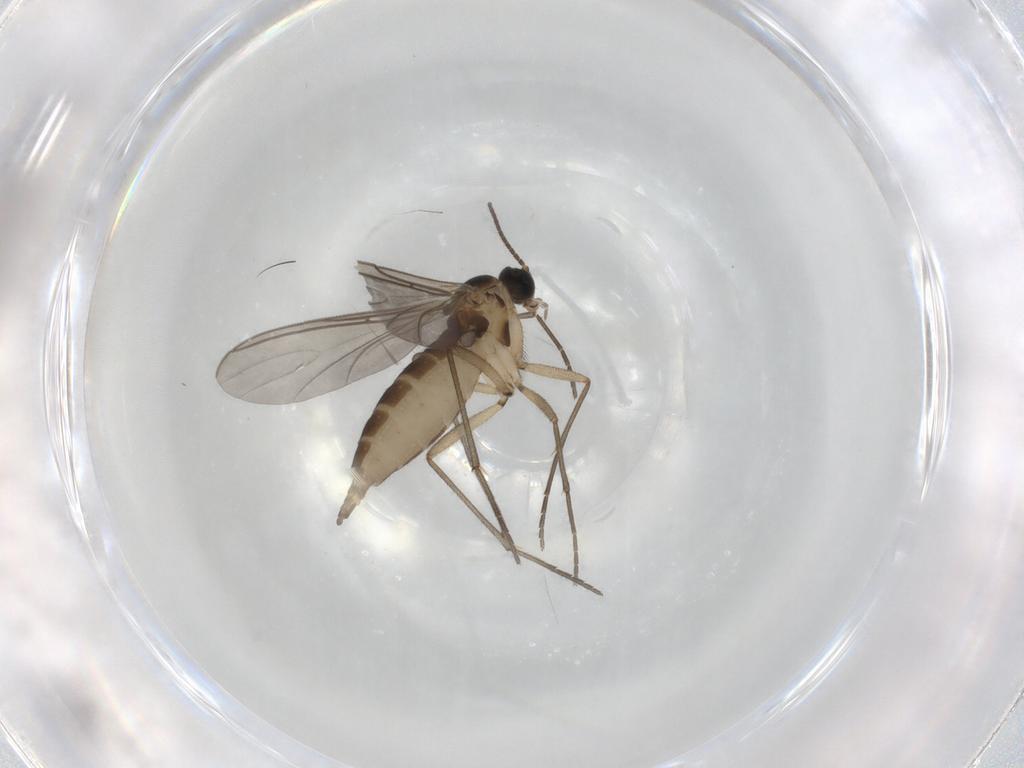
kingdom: Animalia
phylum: Arthropoda
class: Insecta
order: Diptera
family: Sciaridae
